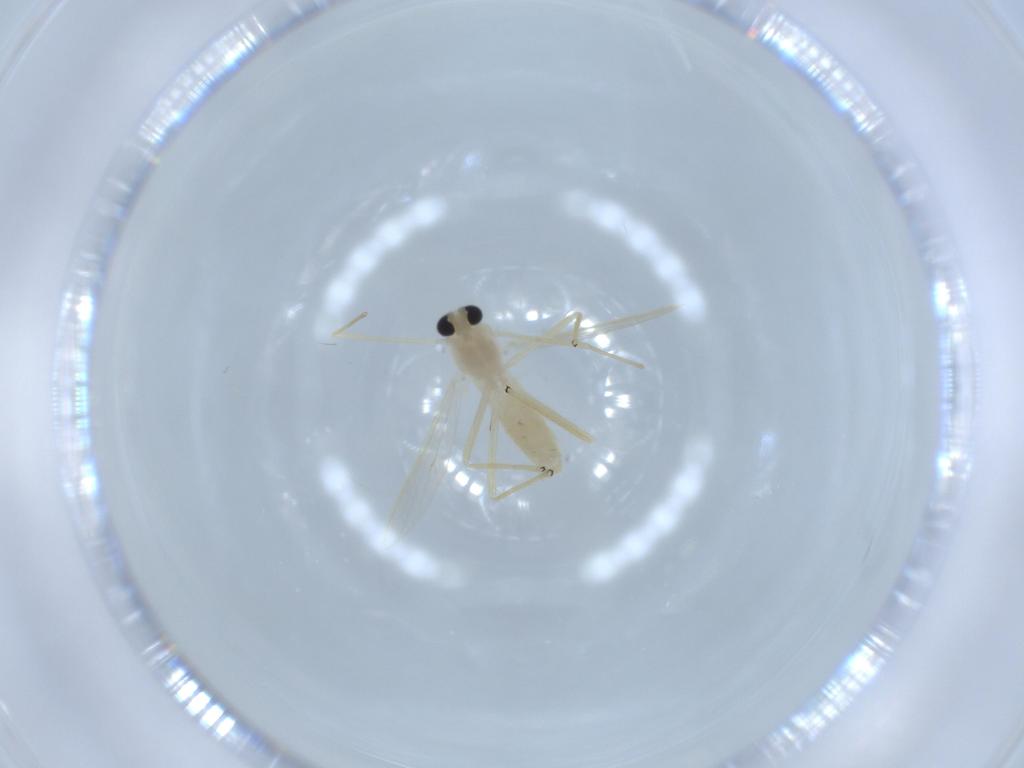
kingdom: Animalia
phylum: Arthropoda
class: Insecta
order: Diptera
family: Chironomidae
